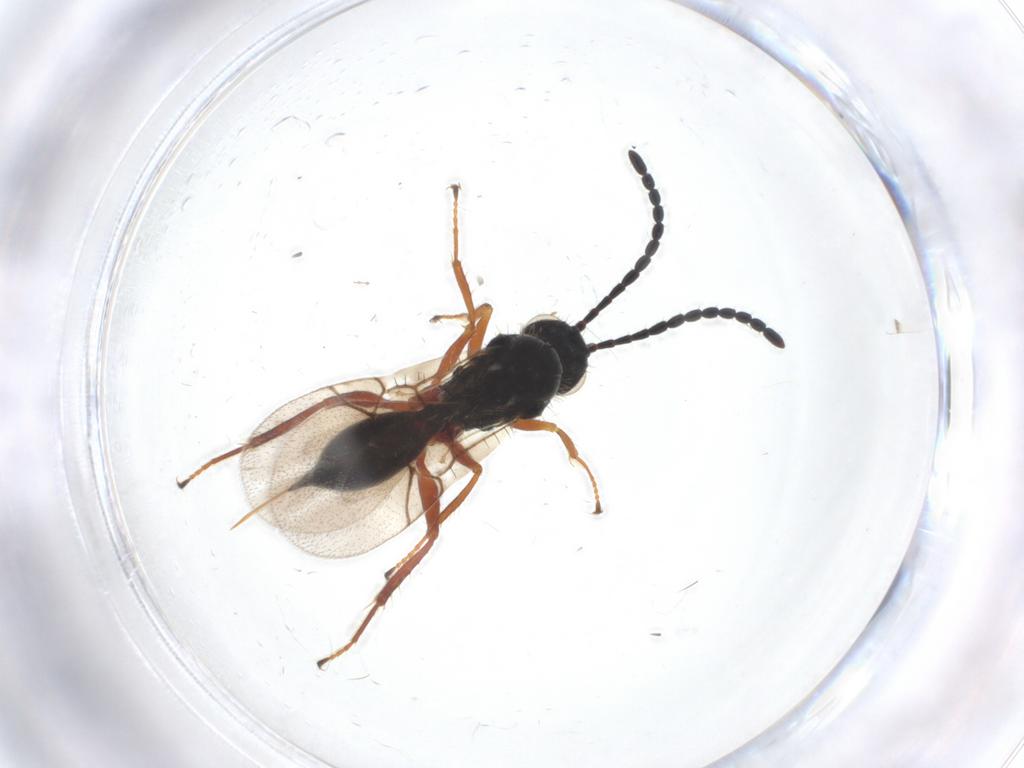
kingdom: Animalia
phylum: Arthropoda
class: Insecta
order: Hymenoptera
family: Figitidae
